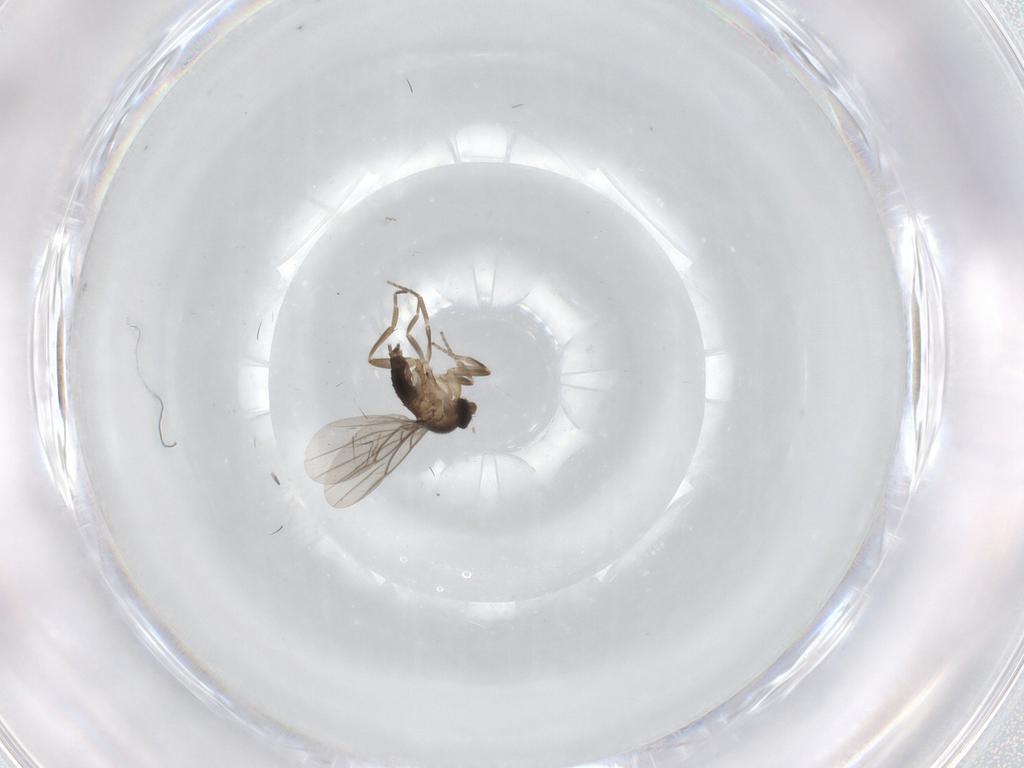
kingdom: Animalia
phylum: Arthropoda
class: Insecta
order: Diptera
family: Cecidomyiidae
